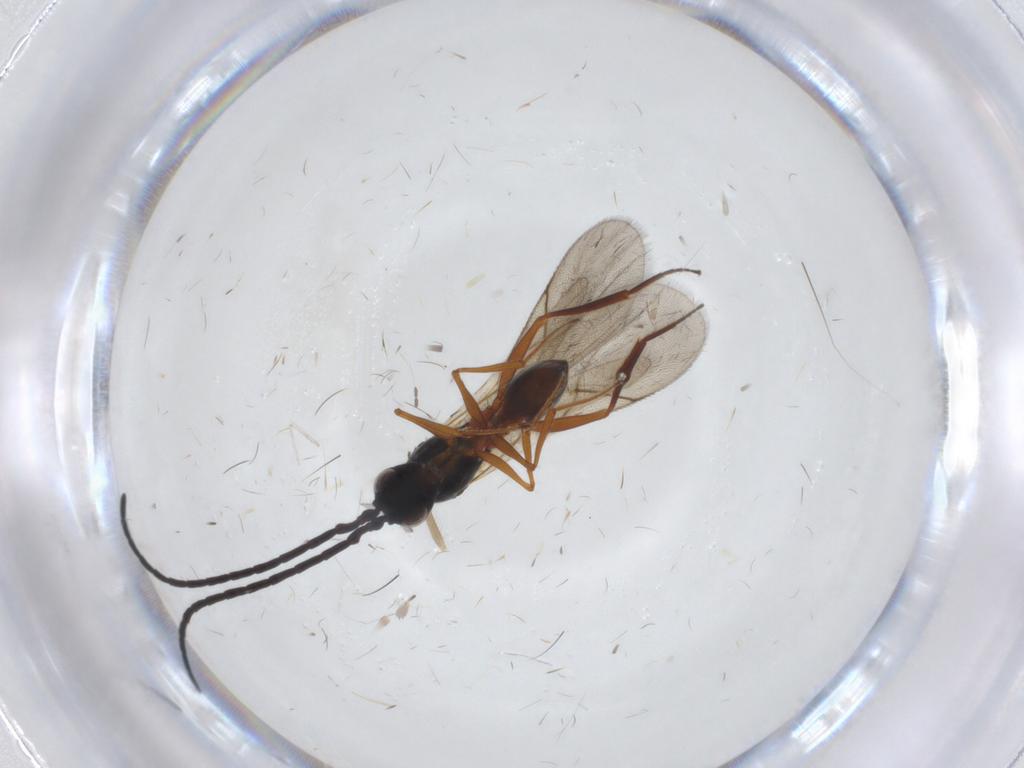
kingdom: Animalia
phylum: Arthropoda
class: Insecta
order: Hymenoptera
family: Figitidae
